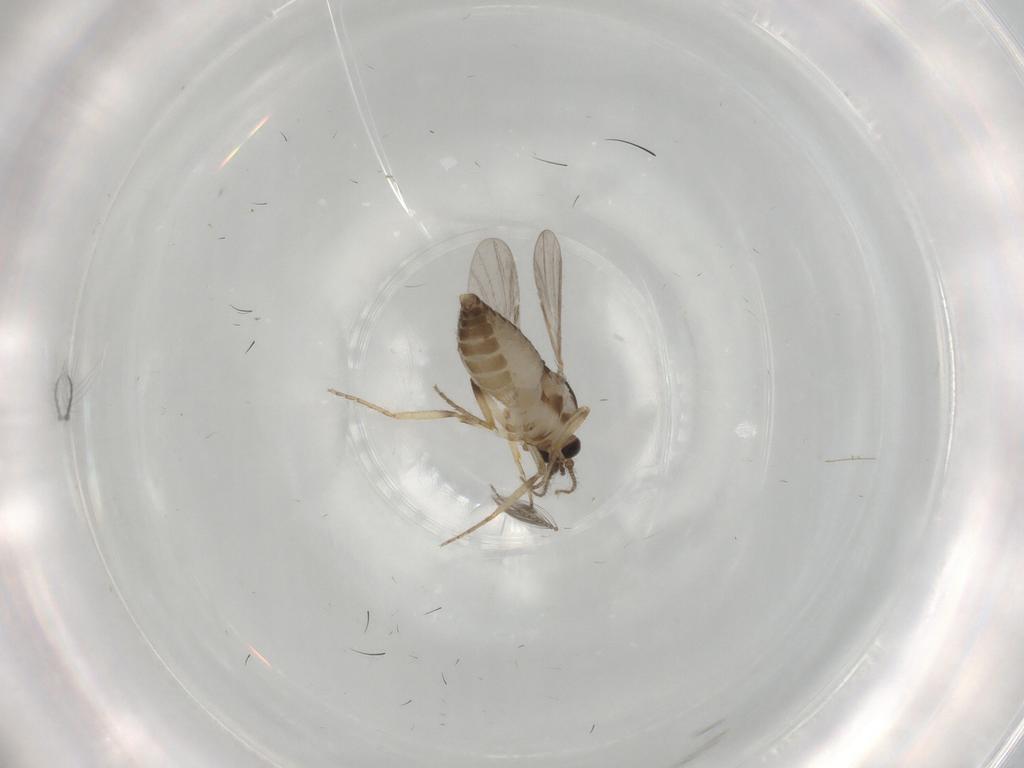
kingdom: Animalia
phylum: Arthropoda
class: Insecta
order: Diptera
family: Ceratopogonidae
